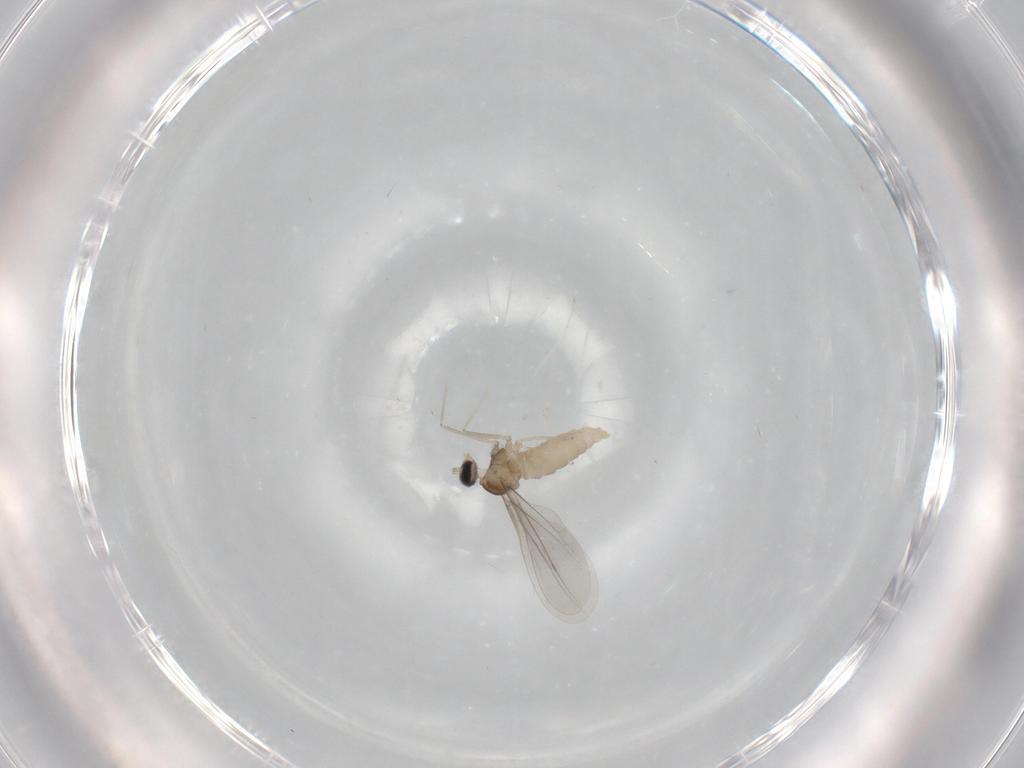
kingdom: Animalia
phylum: Arthropoda
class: Insecta
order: Diptera
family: Cecidomyiidae
